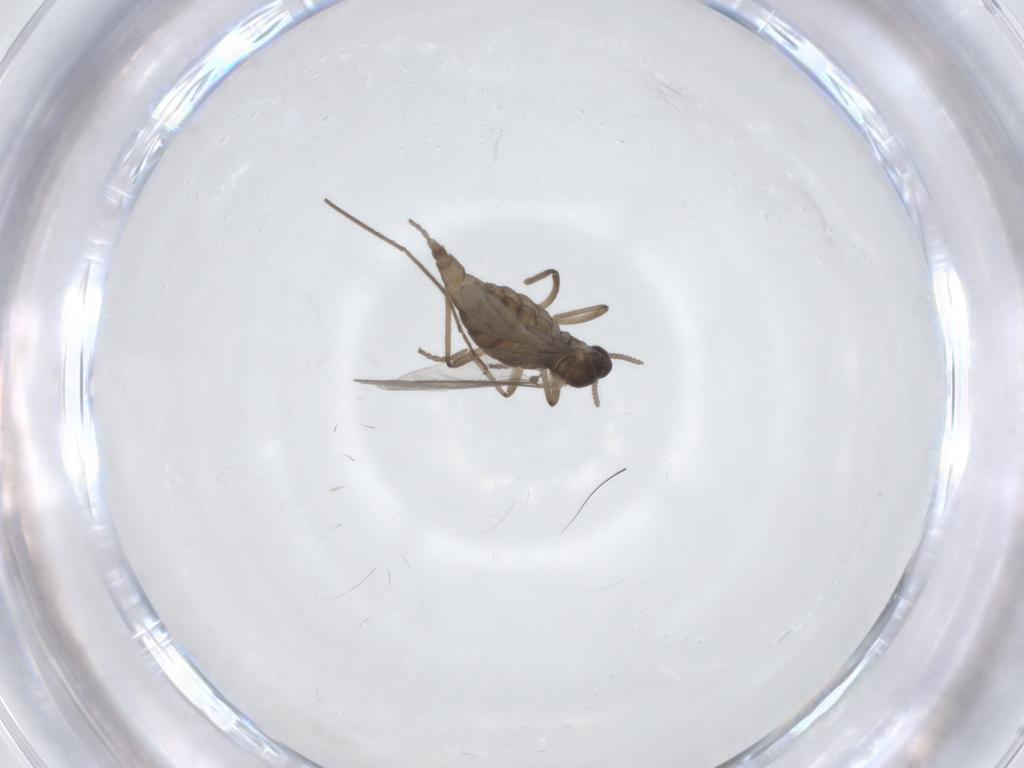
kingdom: Animalia
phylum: Arthropoda
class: Insecta
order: Diptera
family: Cecidomyiidae
